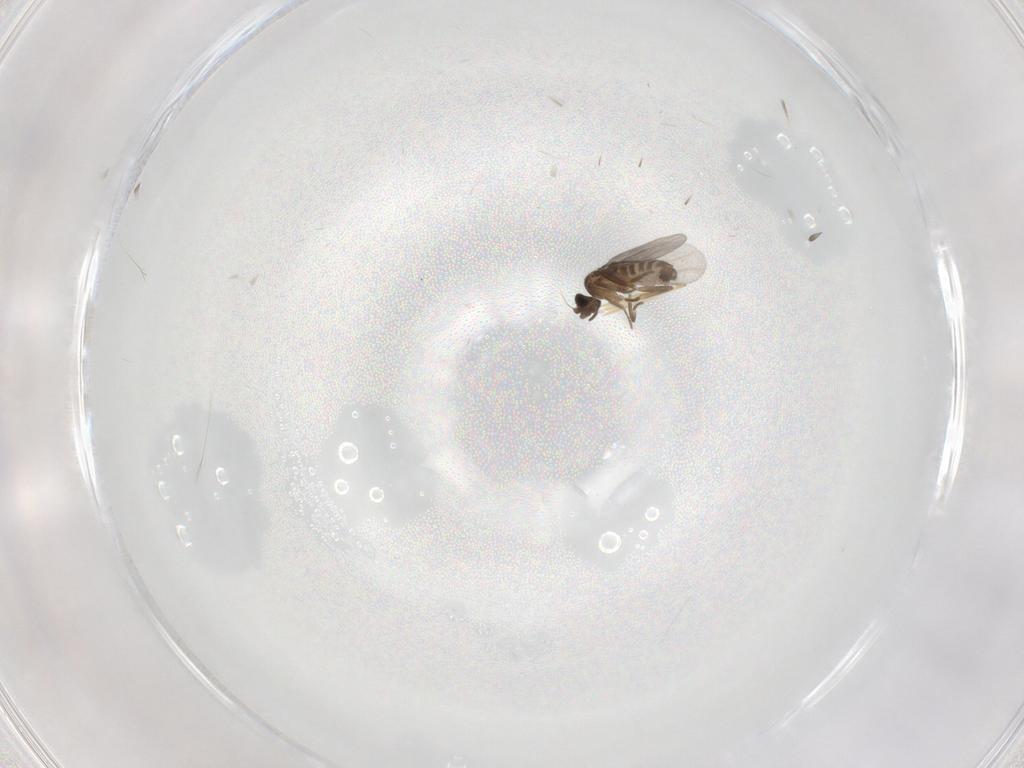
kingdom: Animalia
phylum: Arthropoda
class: Insecta
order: Diptera
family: Phoridae
